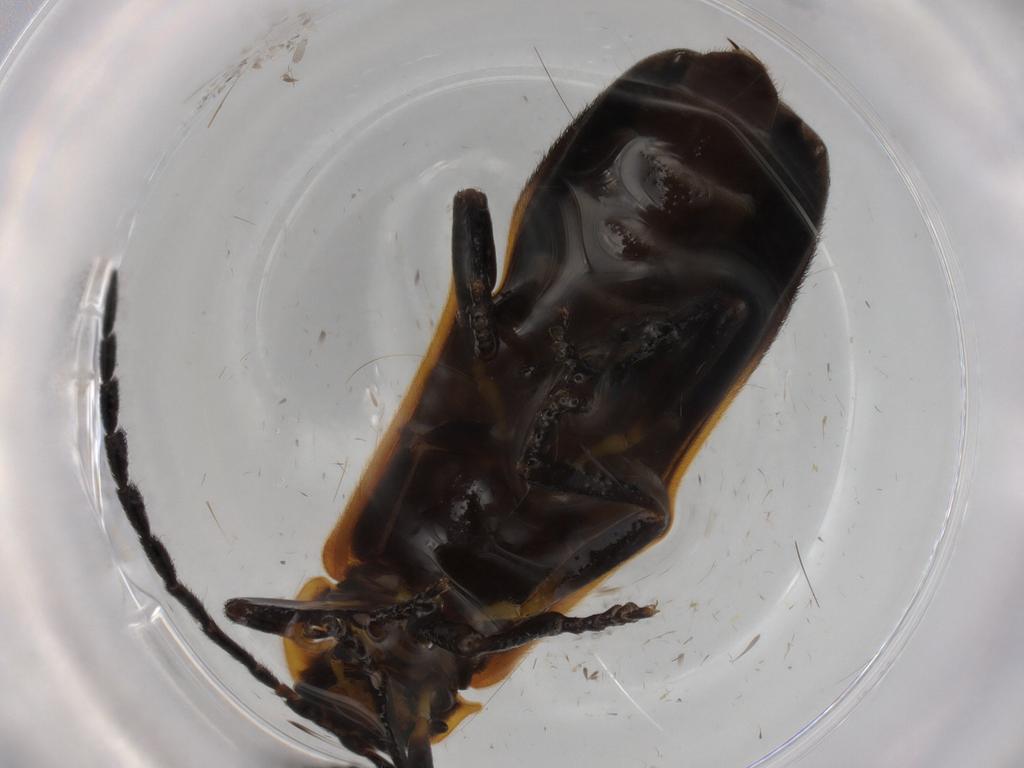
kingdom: Animalia
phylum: Arthropoda
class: Insecta
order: Coleoptera
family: Lycidae
